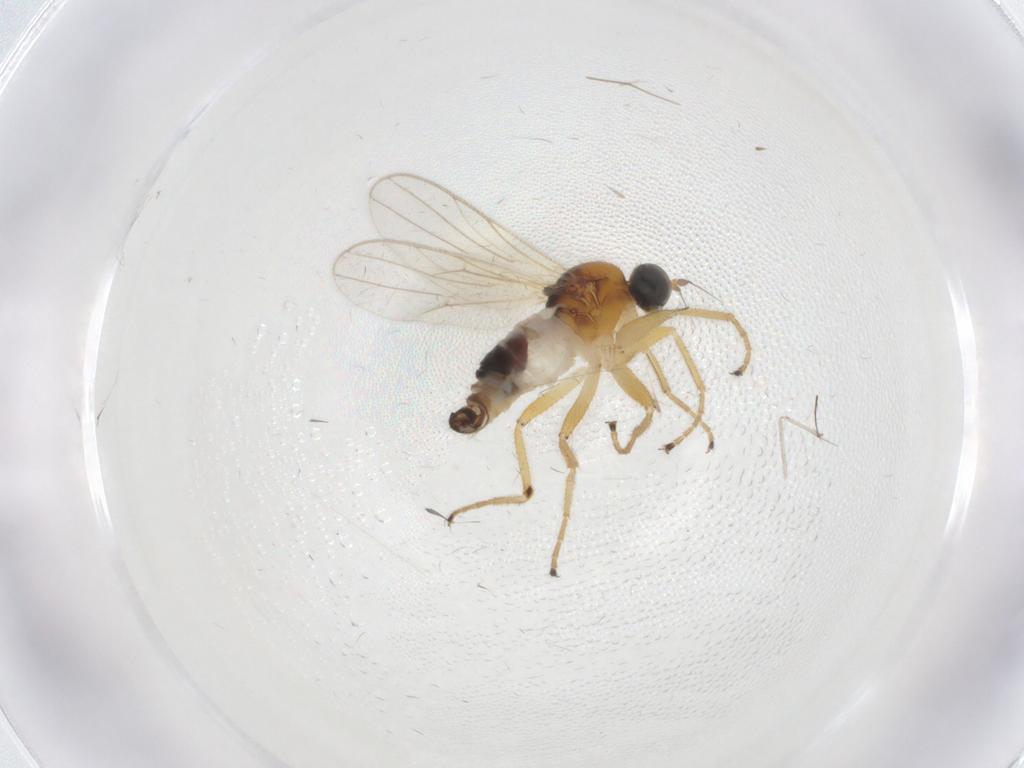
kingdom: Animalia
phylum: Arthropoda
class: Insecta
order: Diptera
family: Hybotidae
